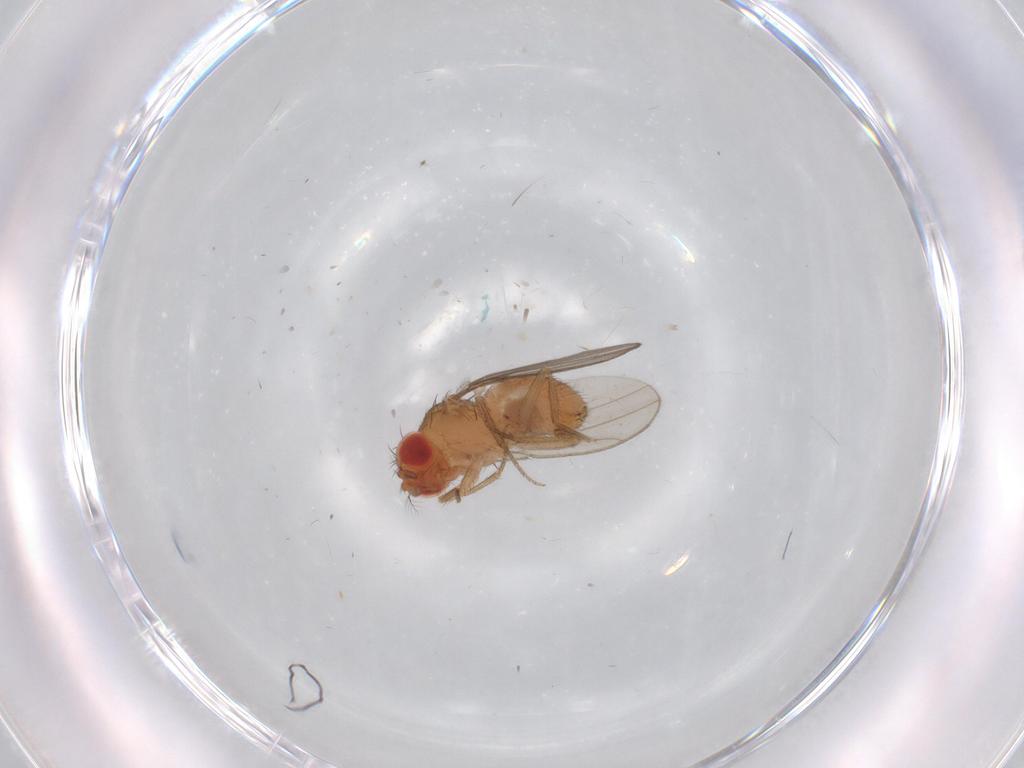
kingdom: Animalia
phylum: Arthropoda
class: Insecta
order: Diptera
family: Drosophilidae
